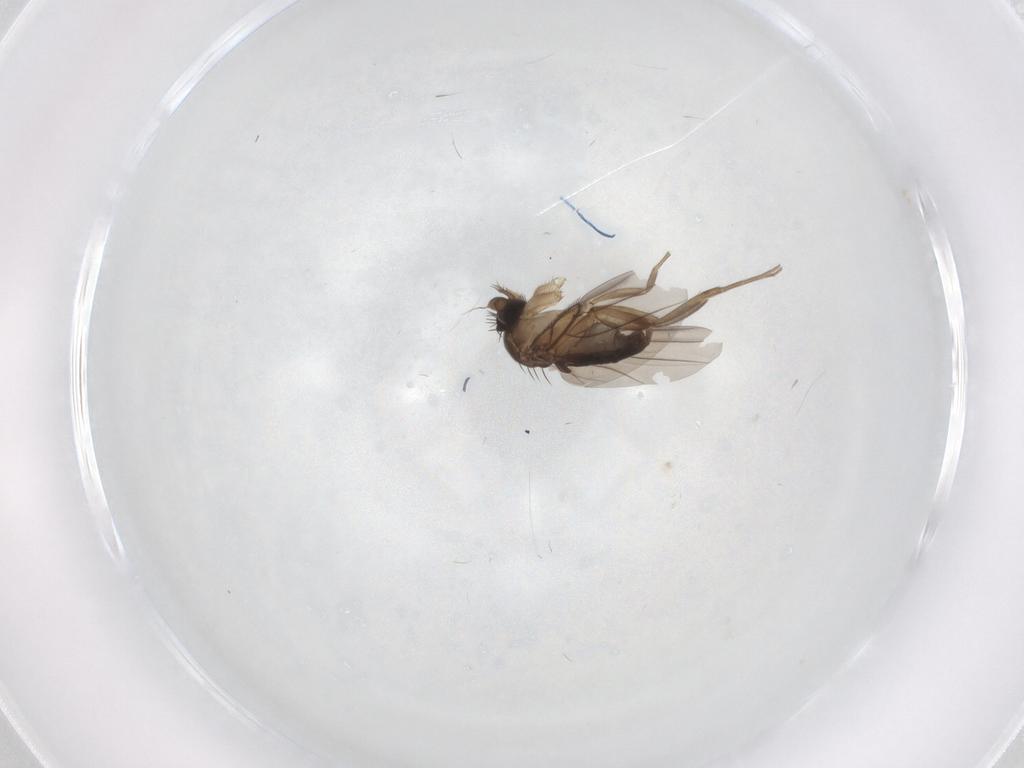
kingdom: Animalia
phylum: Arthropoda
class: Insecta
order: Diptera
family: Phoridae
